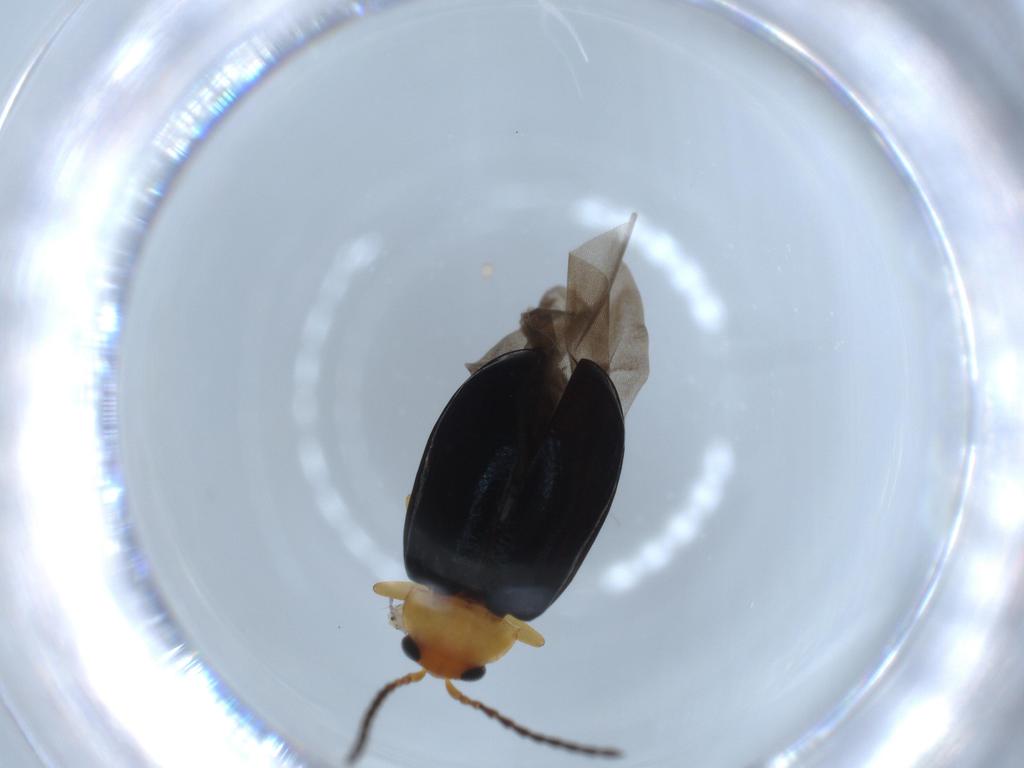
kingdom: Animalia
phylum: Arthropoda
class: Insecta
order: Coleoptera
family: Chrysomelidae
